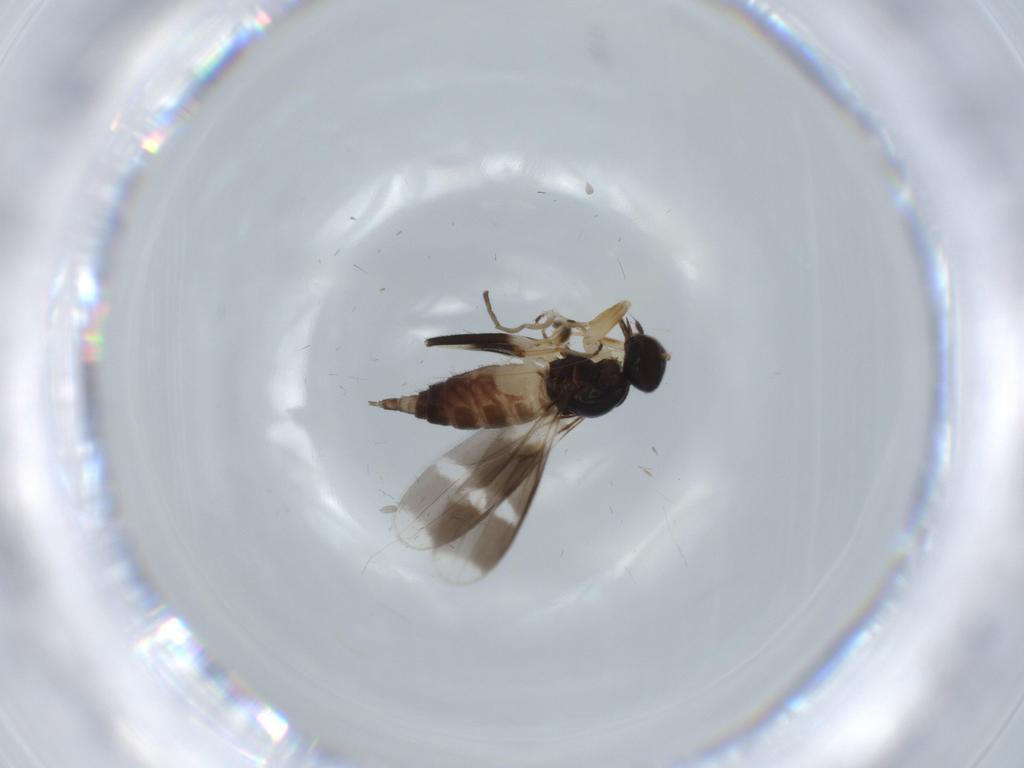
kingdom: Animalia
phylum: Arthropoda
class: Insecta
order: Diptera
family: Hybotidae
